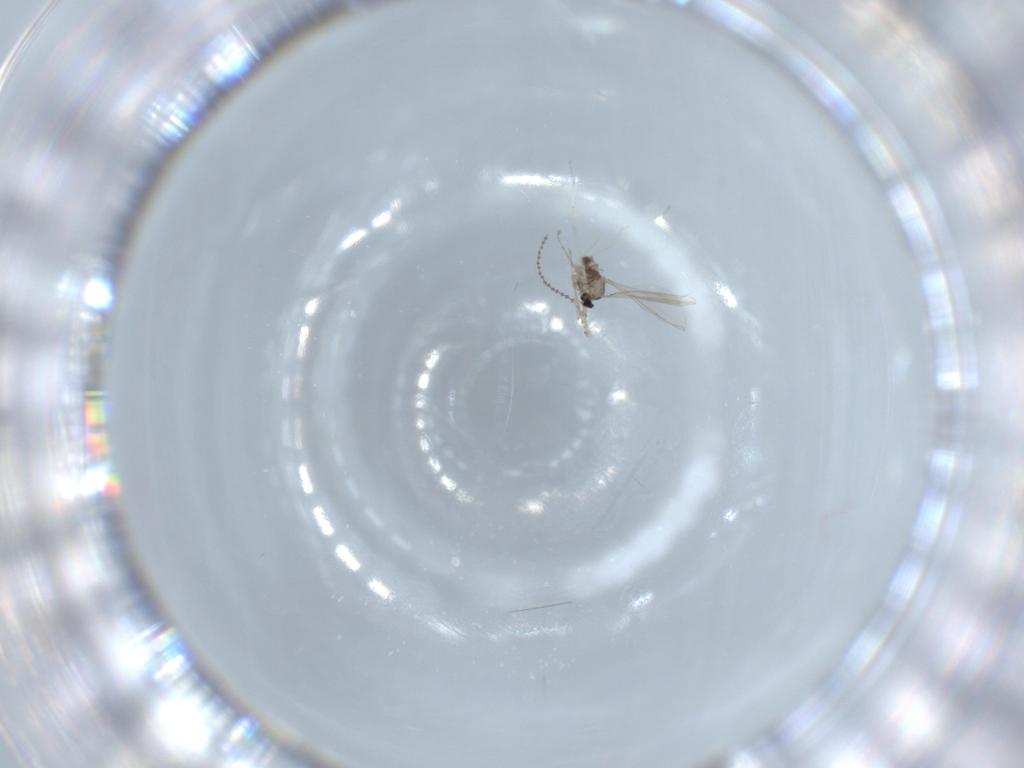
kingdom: Animalia
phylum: Arthropoda
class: Insecta
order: Diptera
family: Cecidomyiidae
